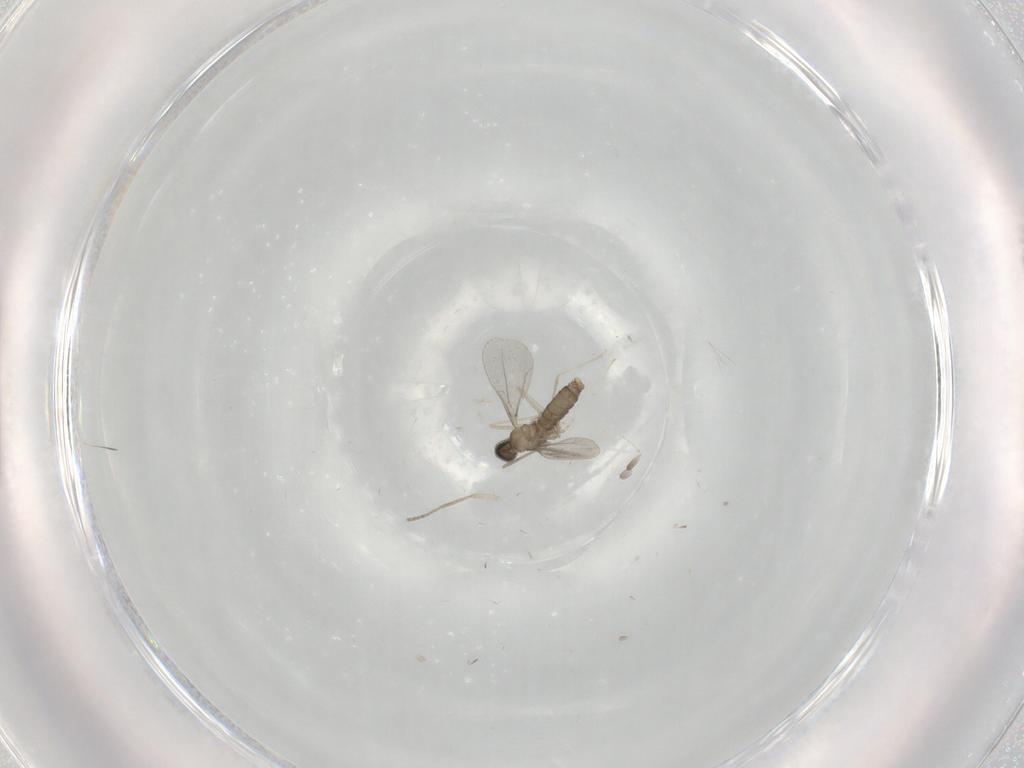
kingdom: Animalia
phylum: Arthropoda
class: Insecta
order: Diptera
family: Cecidomyiidae
